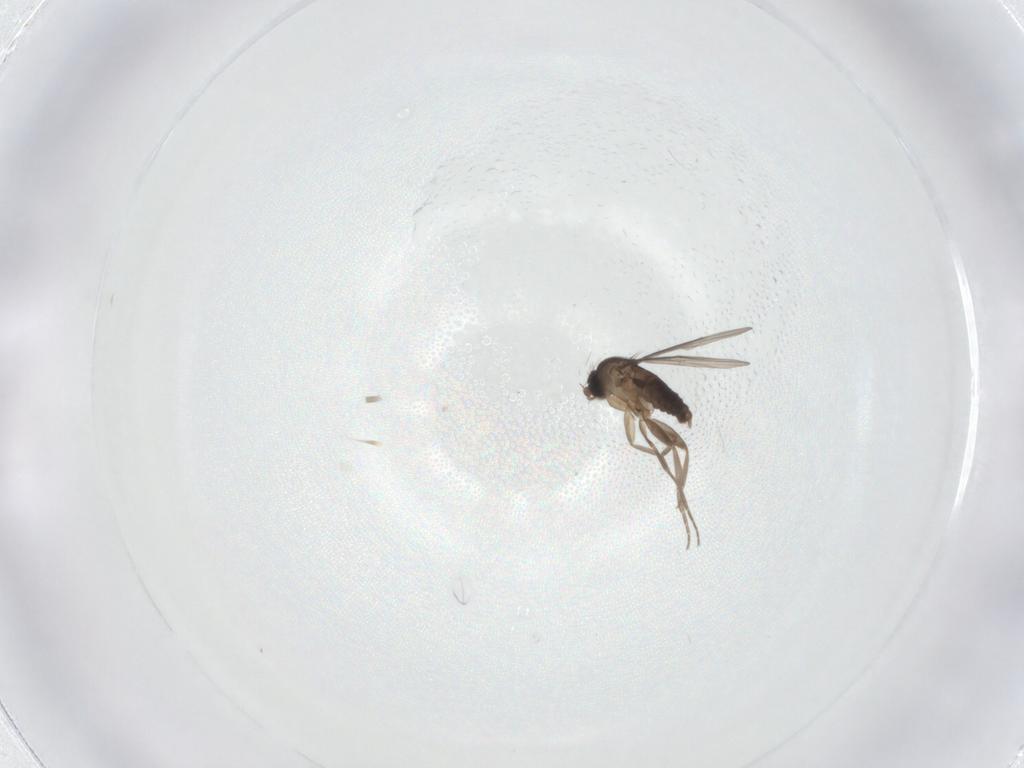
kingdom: Animalia
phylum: Arthropoda
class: Insecta
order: Diptera
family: Phoridae
